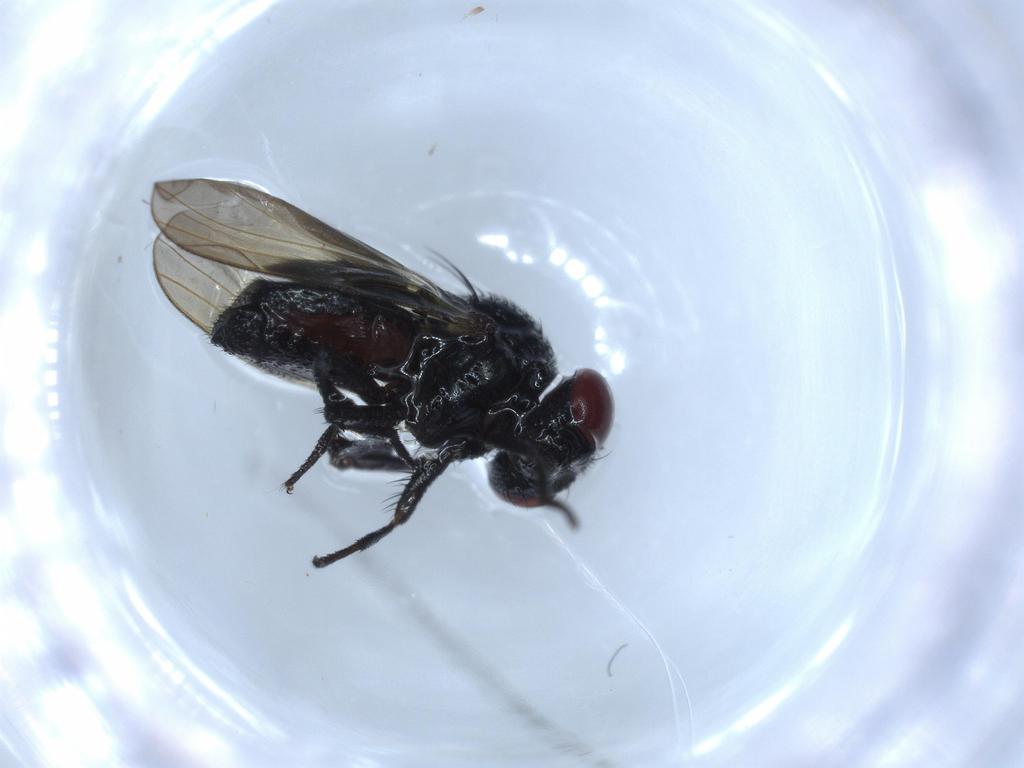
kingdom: Animalia
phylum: Arthropoda
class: Insecta
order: Diptera
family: Lonchaeidae
